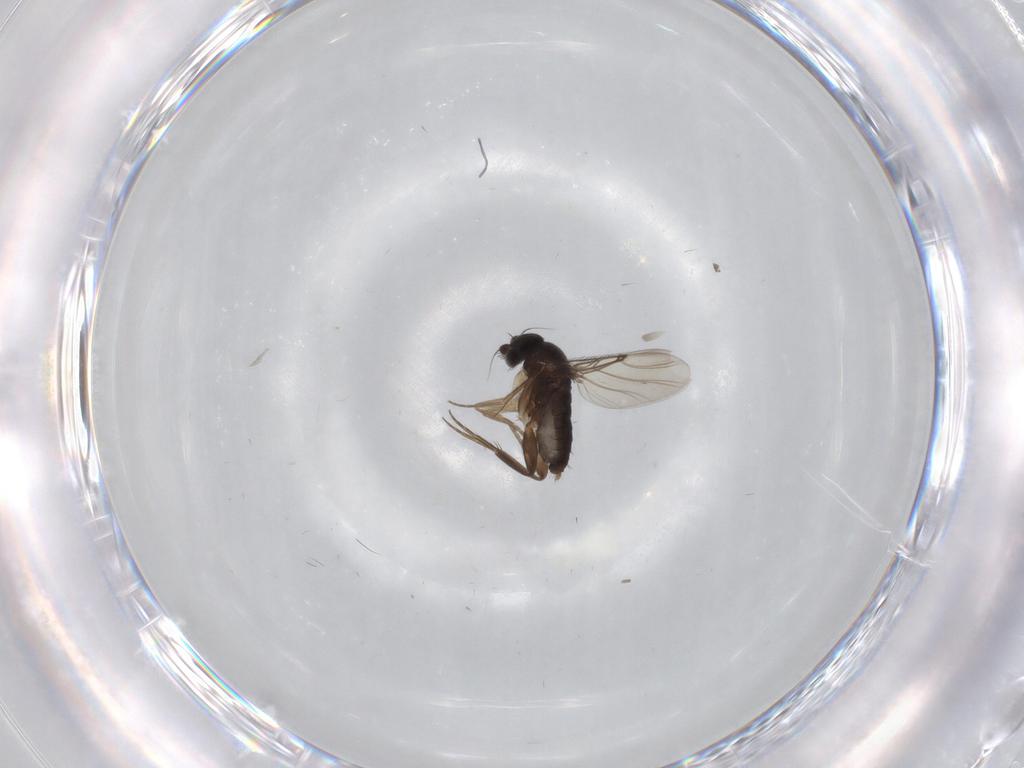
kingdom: Animalia
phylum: Arthropoda
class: Insecta
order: Diptera
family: Phoridae
